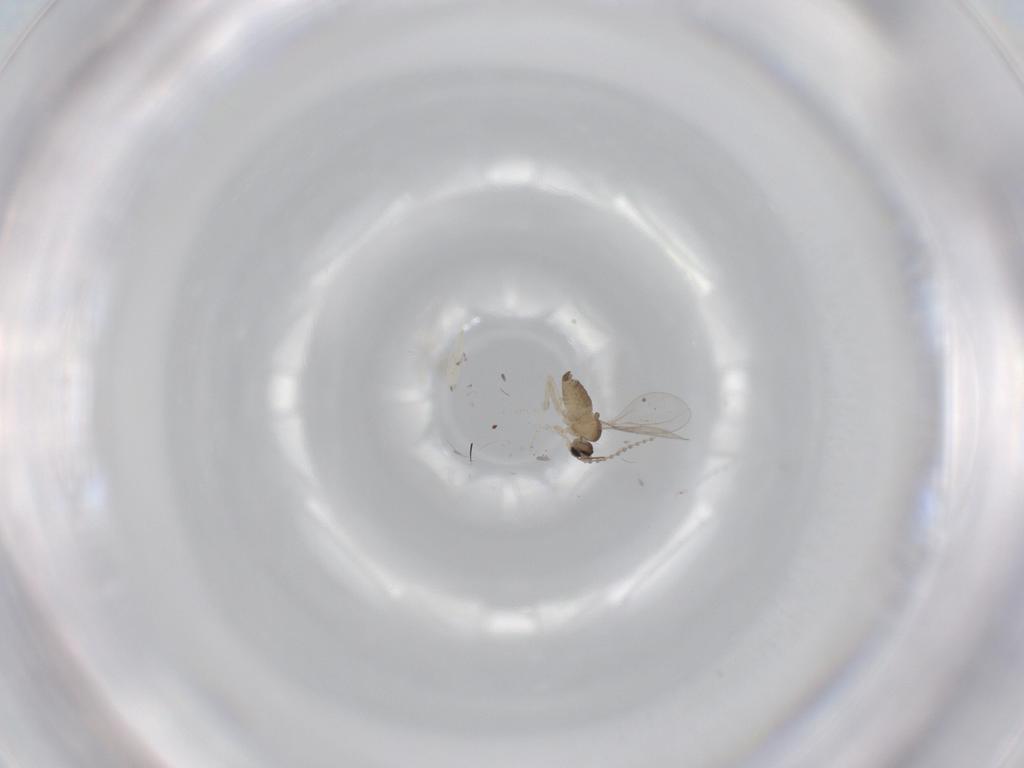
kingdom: Animalia
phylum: Arthropoda
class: Insecta
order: Diptera
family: Cecidomyiidae
